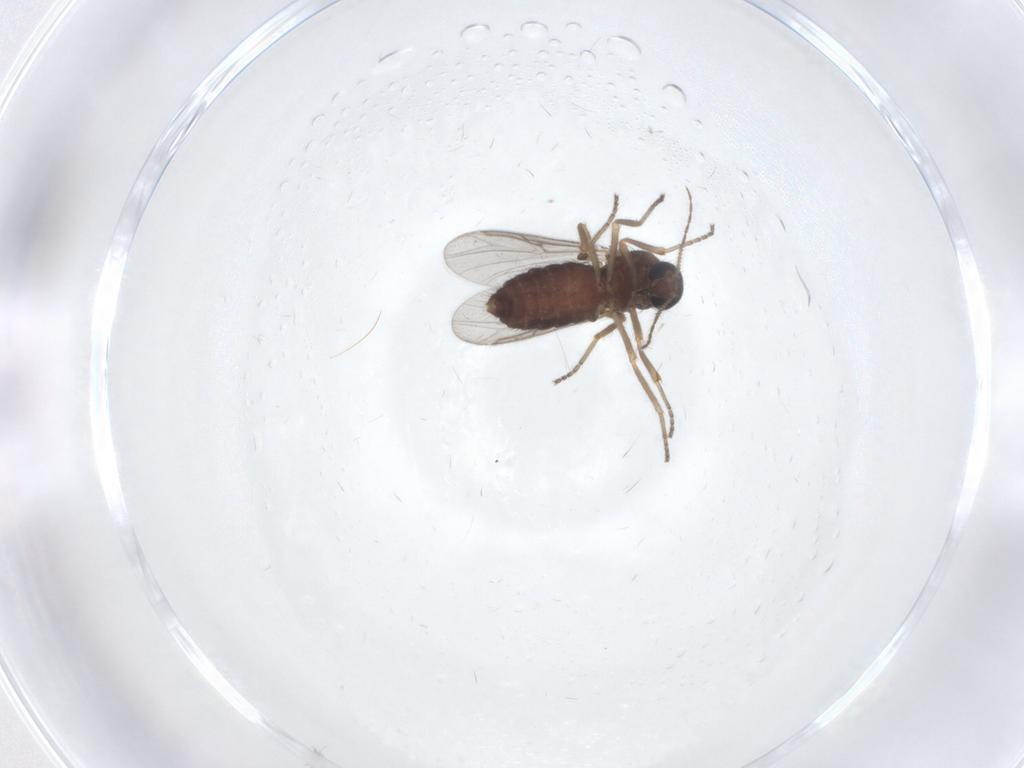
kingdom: Animalia
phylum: Arthropoda
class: Insecta
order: Diptera
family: Ceratopogonidae
